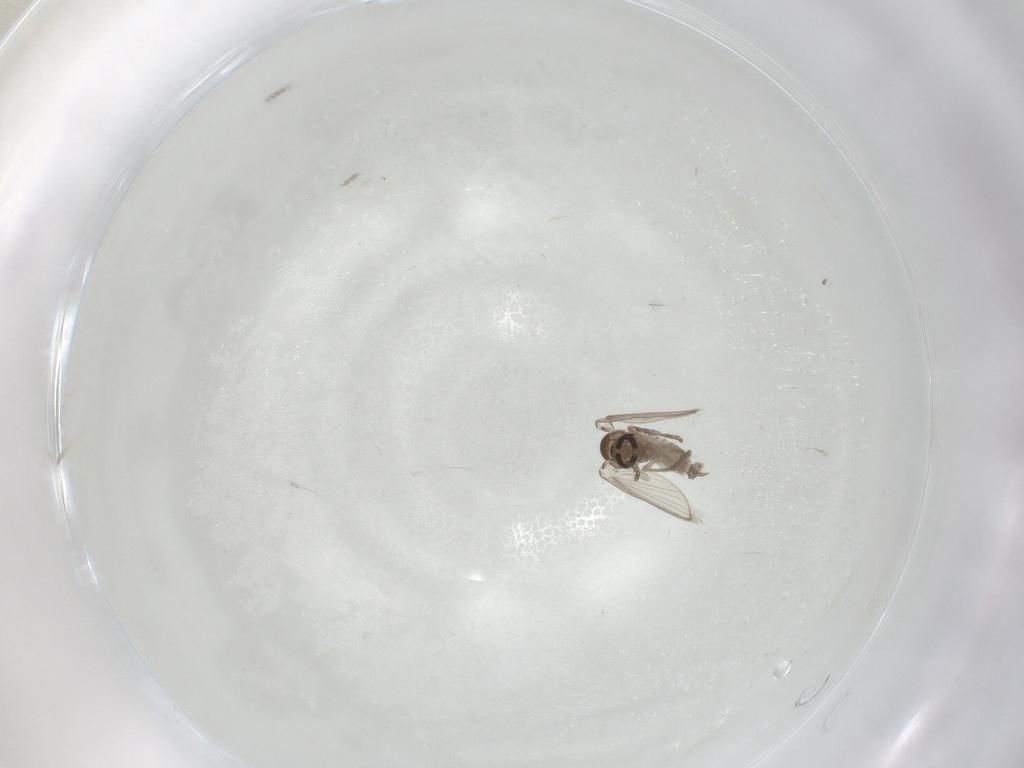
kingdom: Animalia
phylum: Arthropoda
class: Insecta
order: Diptera
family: Psychodidae
